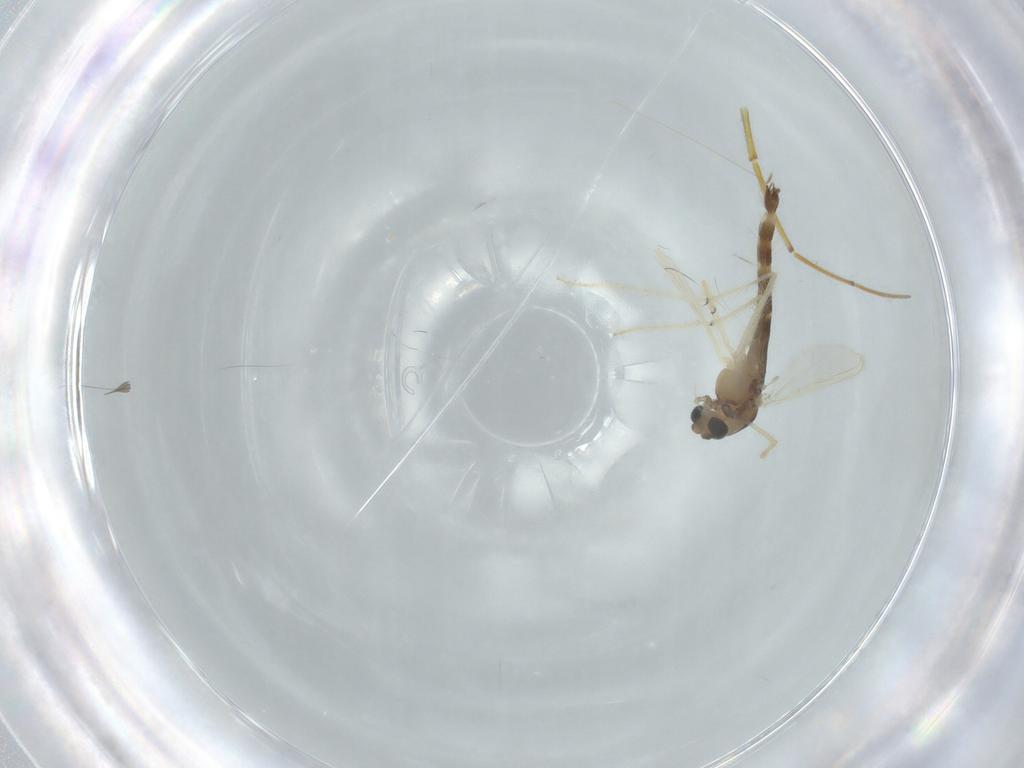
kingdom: Animalia
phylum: Arthropoda
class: Insecta
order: Diptera
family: Chironomidae
